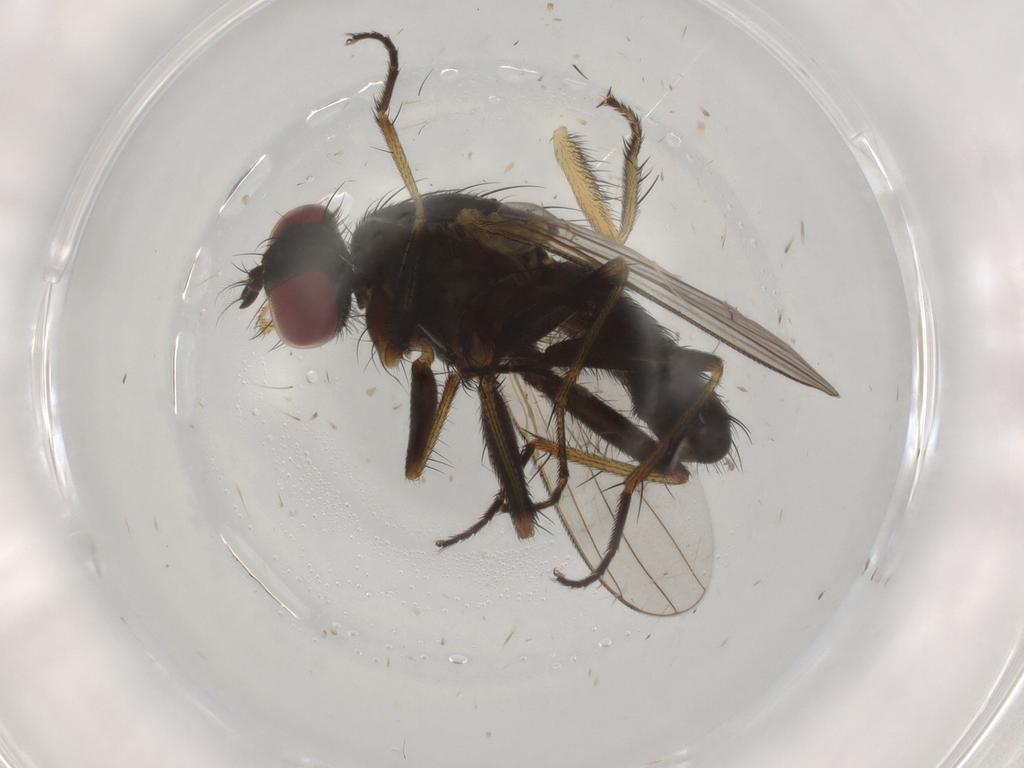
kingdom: Animalia
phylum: Arthropoda
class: Insecta
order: Diptera
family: Muscidae
